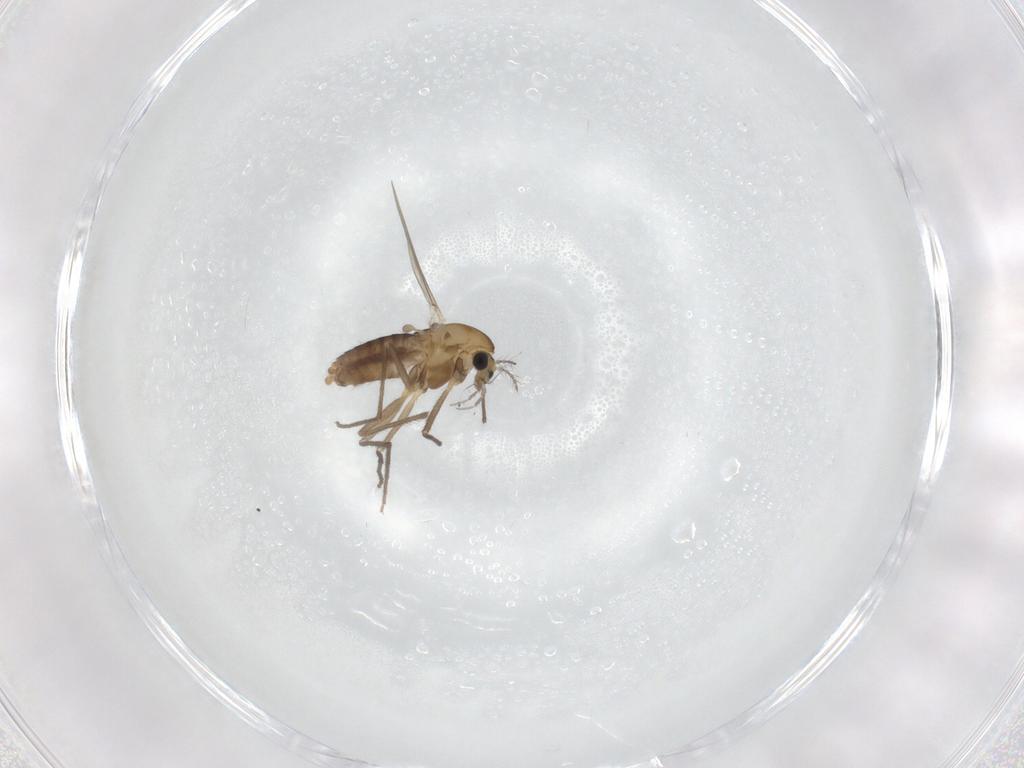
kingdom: Animalia
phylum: Arthropoda
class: Insecta
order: Diptera
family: Chironomidae
